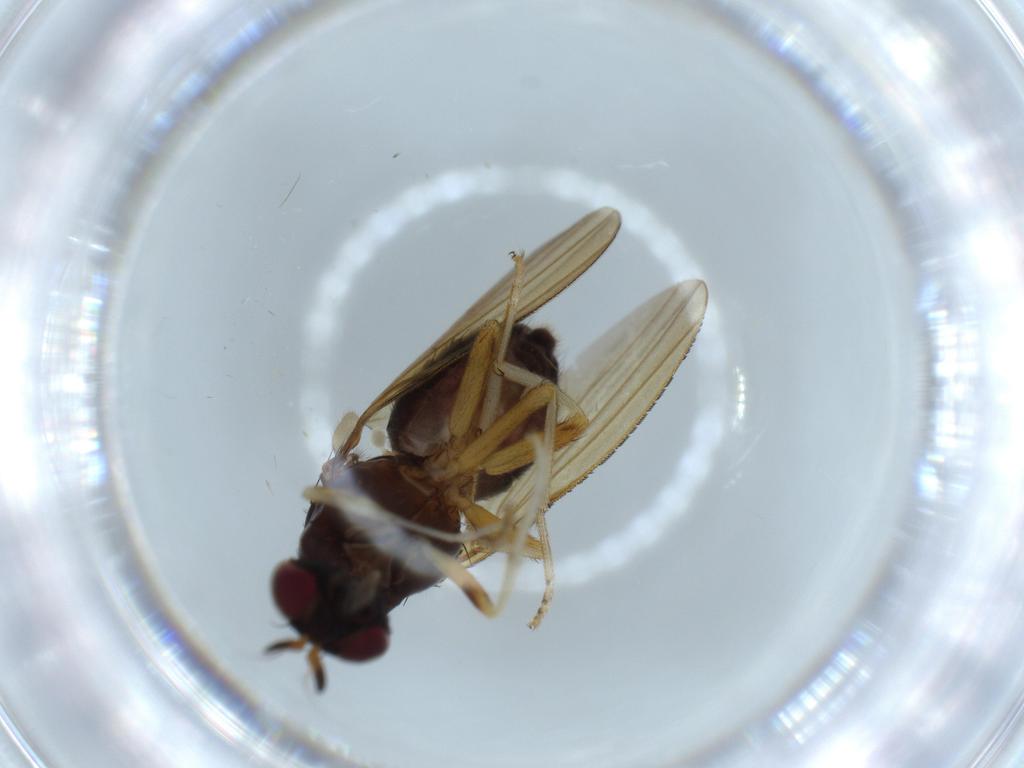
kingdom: Animalia
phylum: Arthropoda
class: Insecta
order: Diptera
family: Sciaridae
